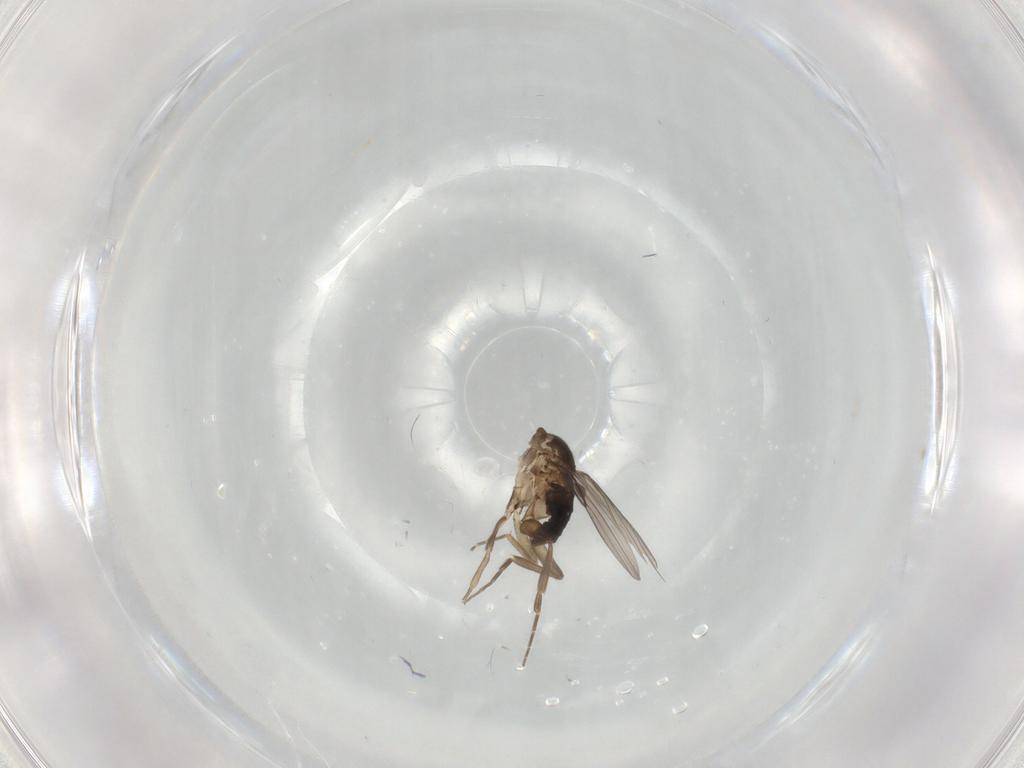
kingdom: Animalia
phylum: Arthropoda
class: Insecta
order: Diptera
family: Phoridae
